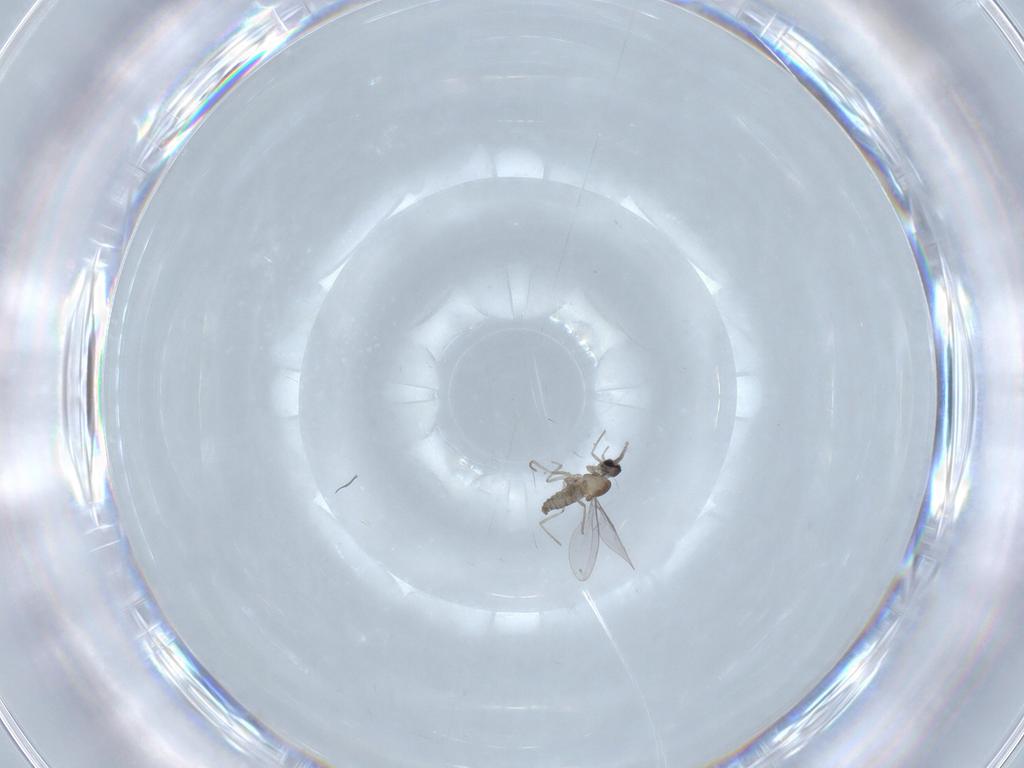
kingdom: Animalia
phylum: Arthropoda
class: Insecta
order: Diptera
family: Cecidomyiidae
